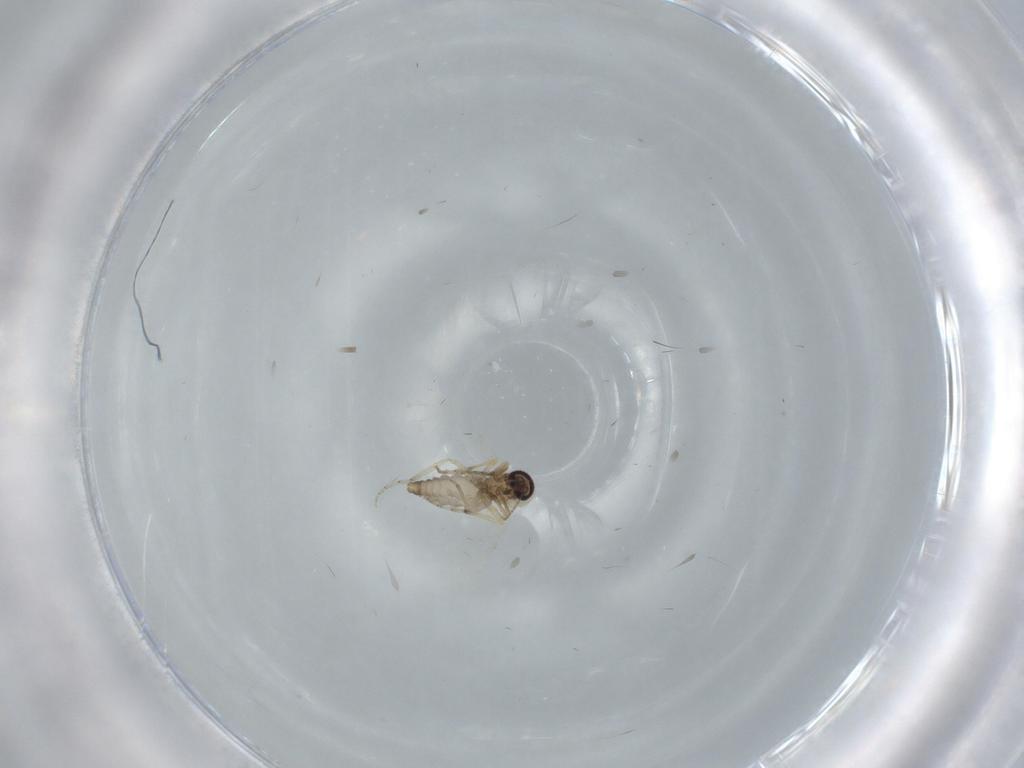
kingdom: Animalia
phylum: Arthropoda
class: Insecta
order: Diptera
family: Ceratopogonidae
